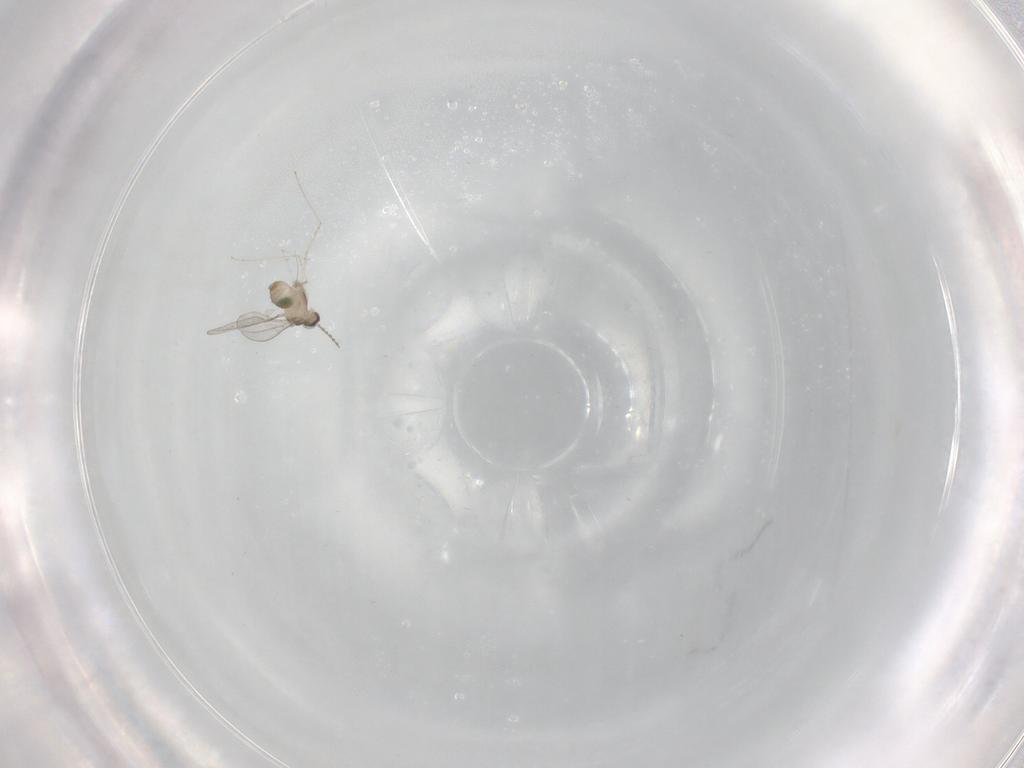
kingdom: Animalia
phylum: Arthropoda
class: Insecta
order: Diptera
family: Cecidomyiidae
